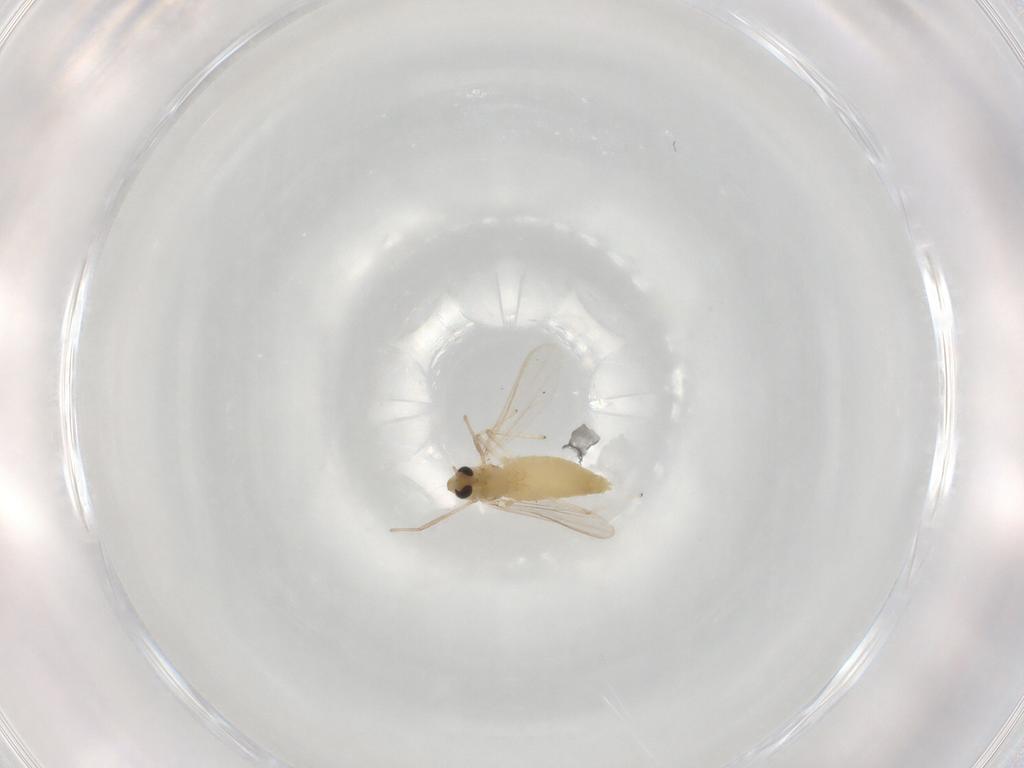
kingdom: Animalia
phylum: Arthropoda
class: Insecta
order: Diptera
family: Chironomidae
